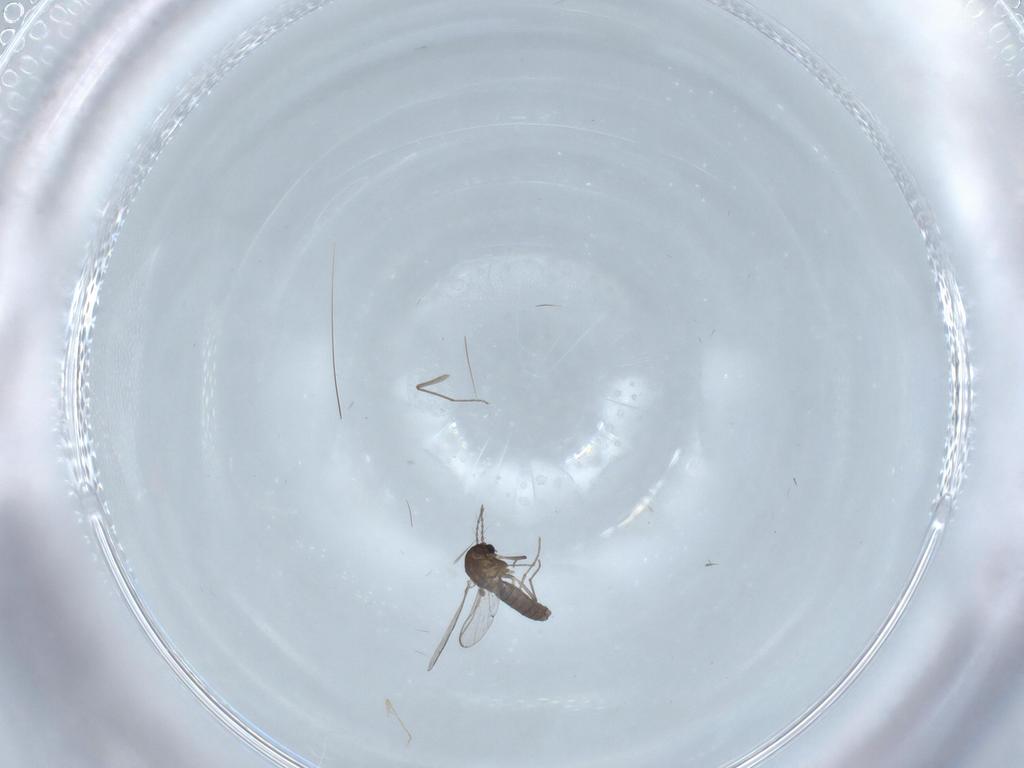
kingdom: Animalia
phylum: Arthropoda
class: Insecta
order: Diptera
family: Chironomidae
